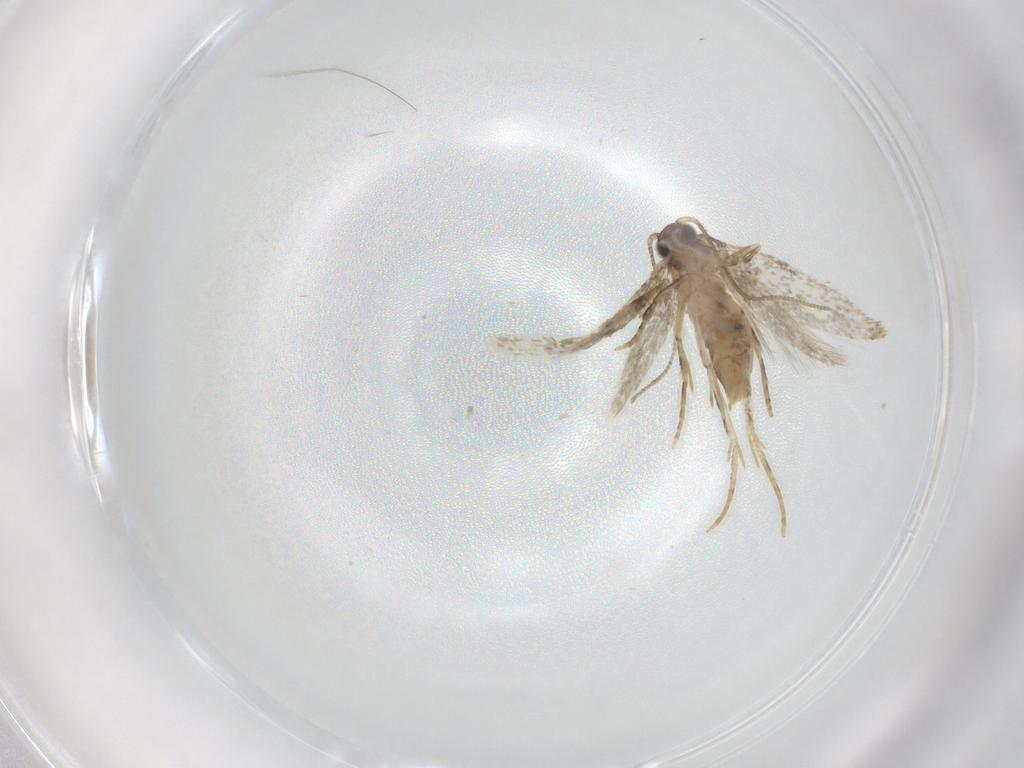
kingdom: Animalia
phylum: Arthropoda
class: Insecta
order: Lepidoptera
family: Tineidae
